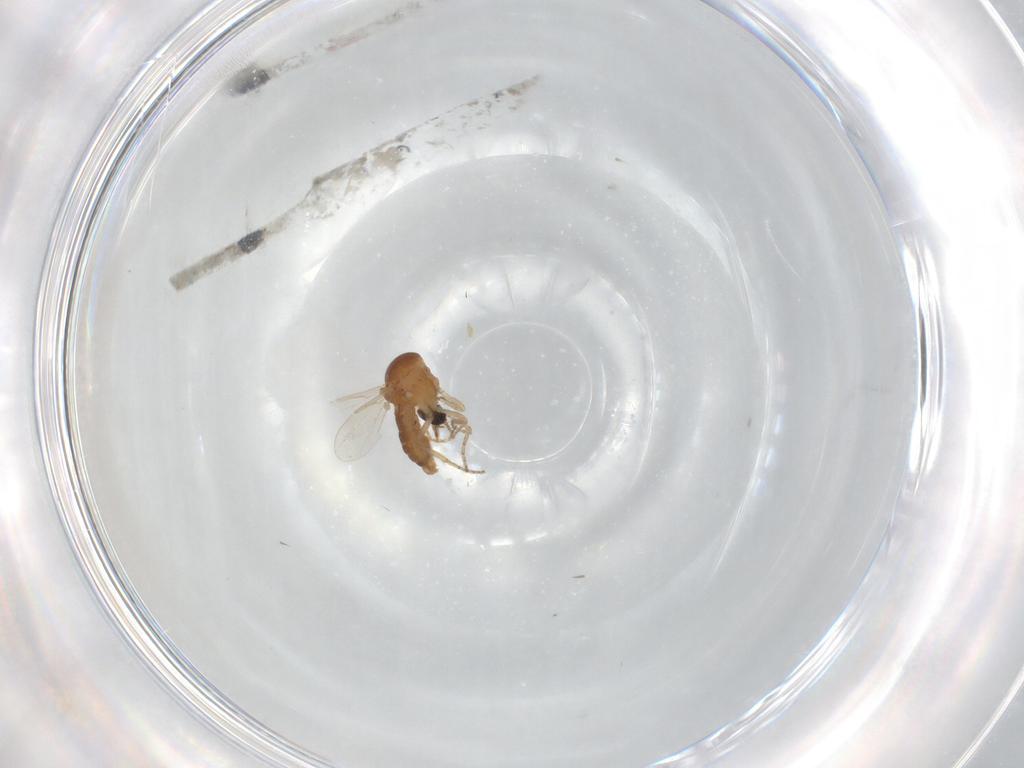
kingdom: Animalia
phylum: Arthropoda
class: Insecta
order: Diptera
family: Ceratopogonidae
